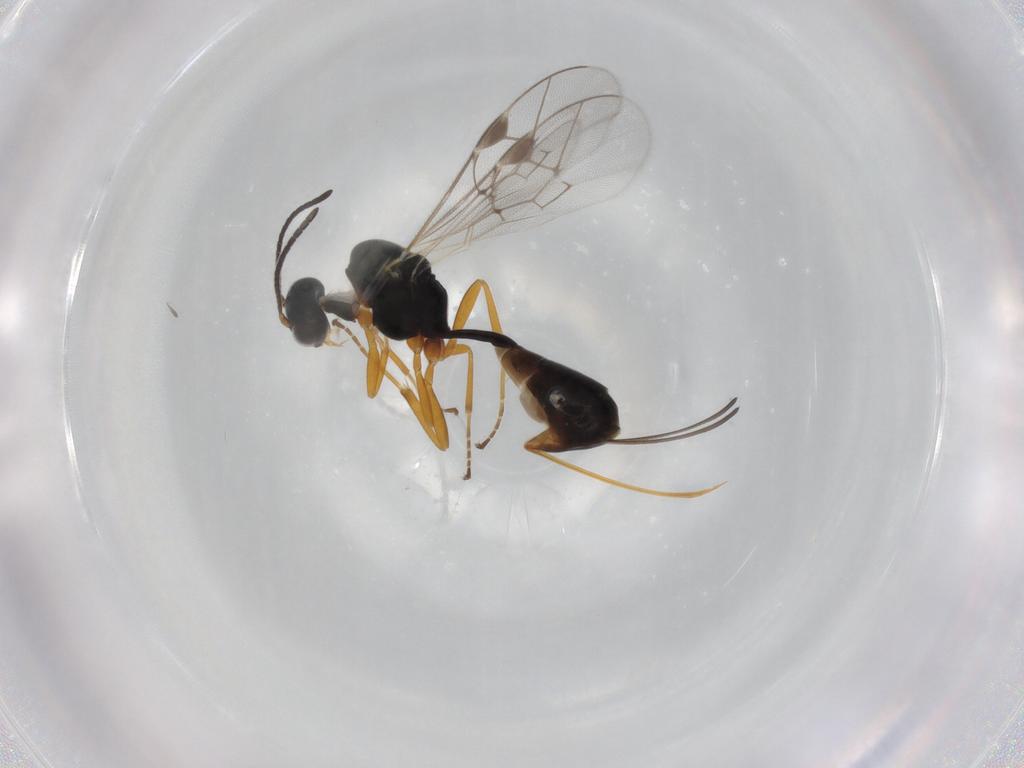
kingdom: Animalia
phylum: Arthropoda
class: Insecta
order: Hymenoptera
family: Ichneumonidae
